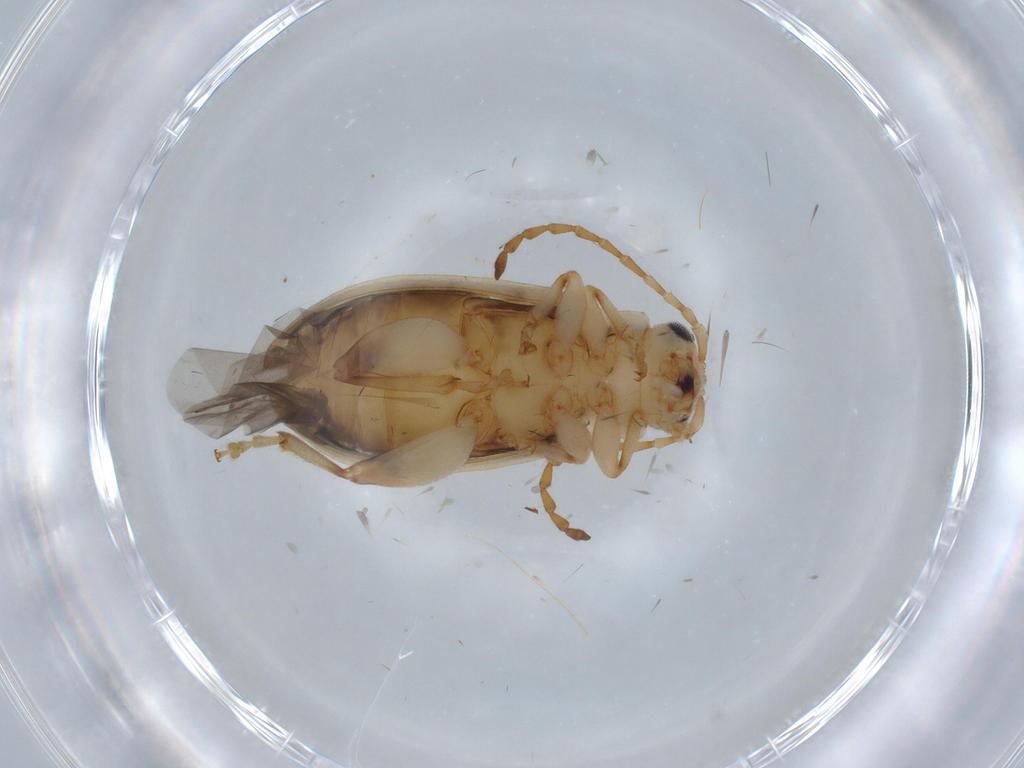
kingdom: Animalia
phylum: Arthropoda
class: Insecta
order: Coleoptera
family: Chrysomelidae
